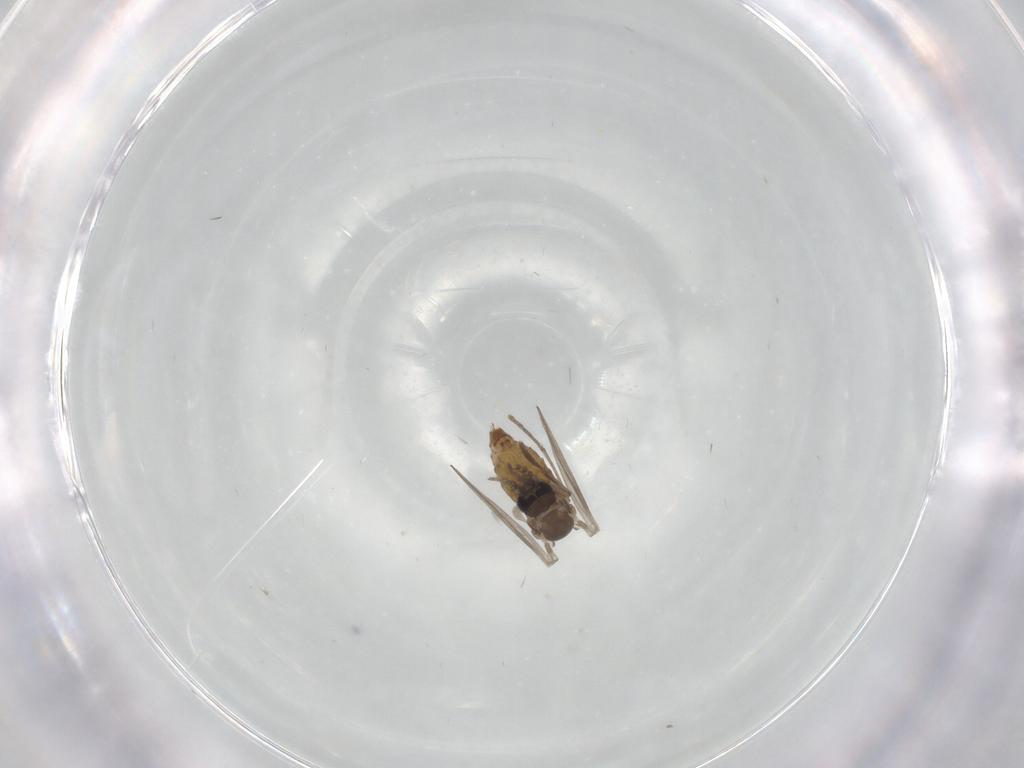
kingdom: Animalia
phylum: Arthropoda
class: Insecta
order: Diptera
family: Psychodidae
